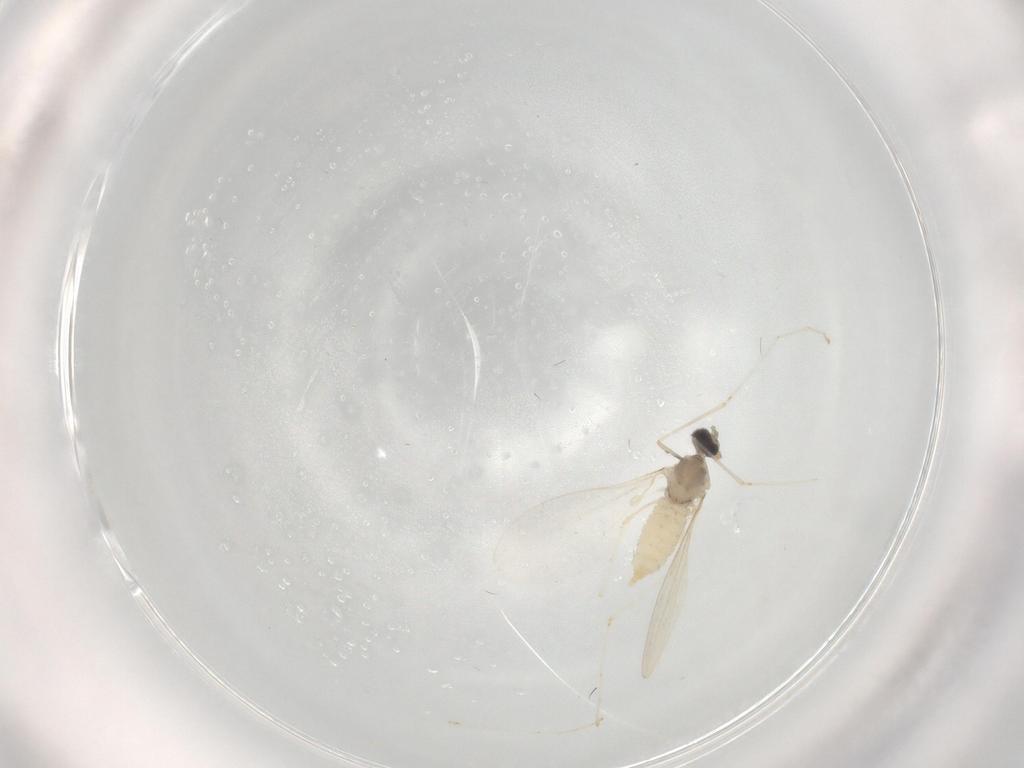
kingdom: Animalia
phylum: Arthropoda
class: Insecta
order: Diptera
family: Cecidomyiidae
